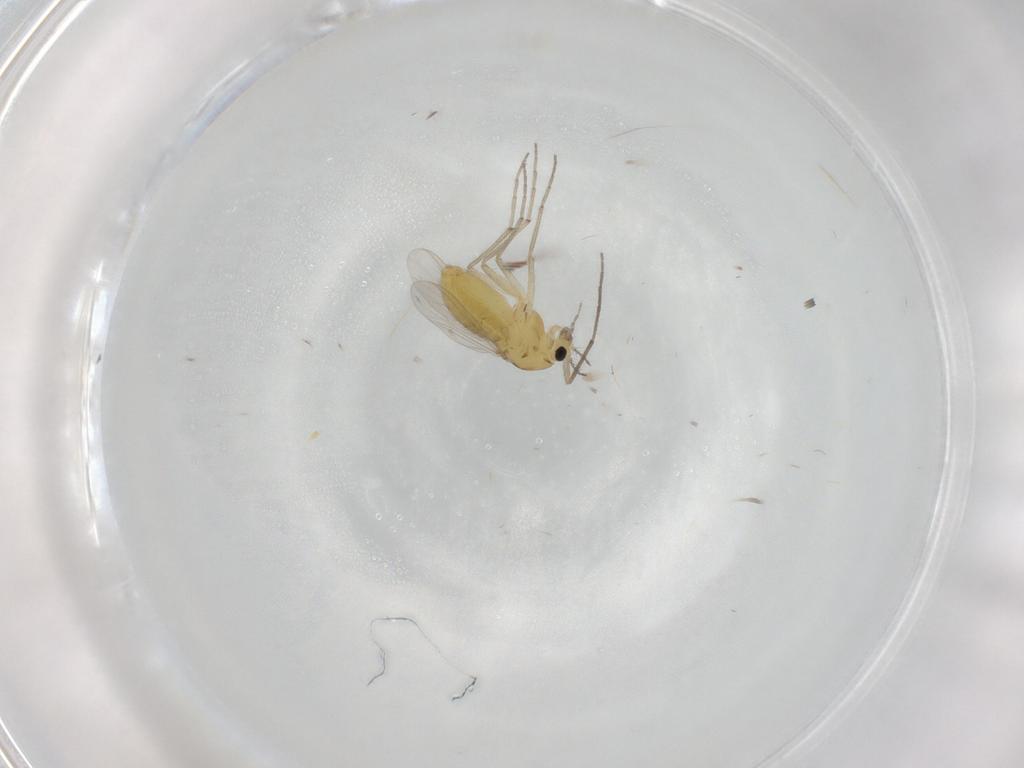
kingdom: Animalia
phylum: Arthropoda
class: Insecta
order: Diptera
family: Chironomidae
